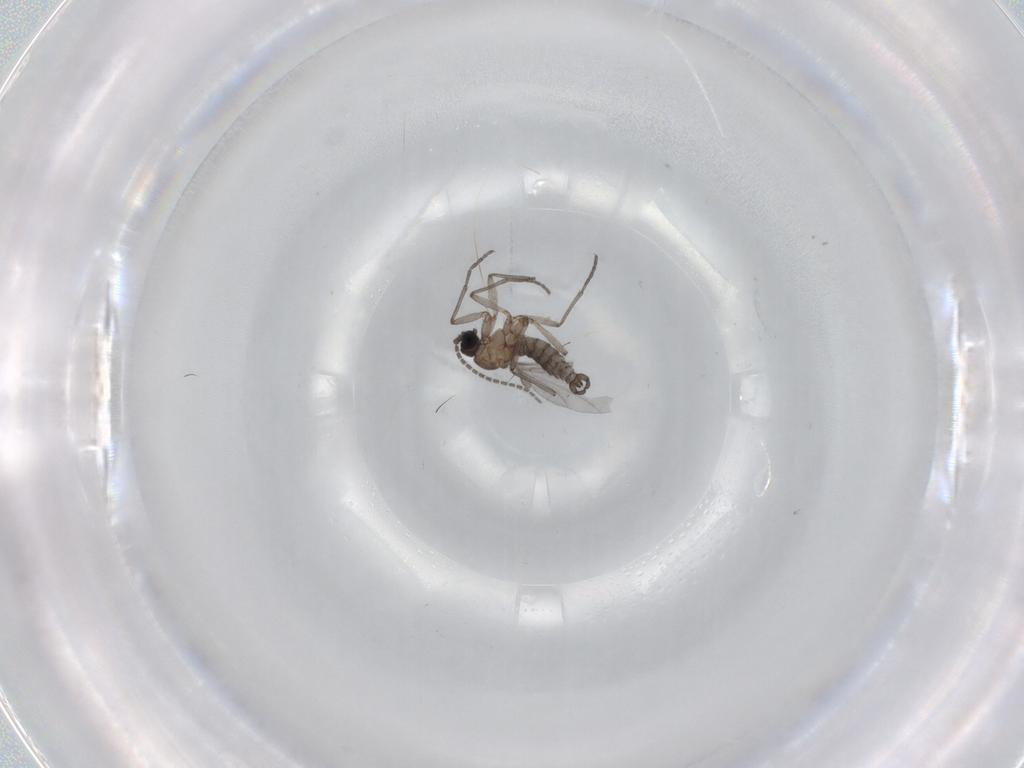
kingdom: Animalia
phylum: Arthropoda
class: Insecta
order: Diptera
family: Sciaridae
